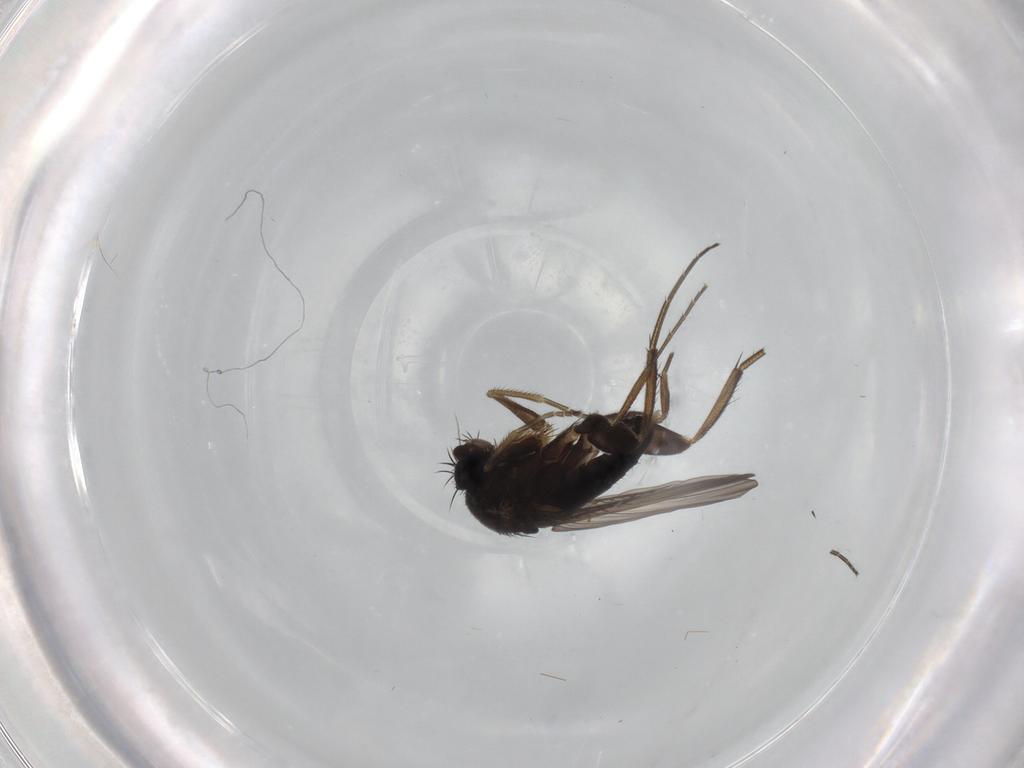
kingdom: Animalia
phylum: Arthropoda
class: Insecta
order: Diptera
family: Phoridae
